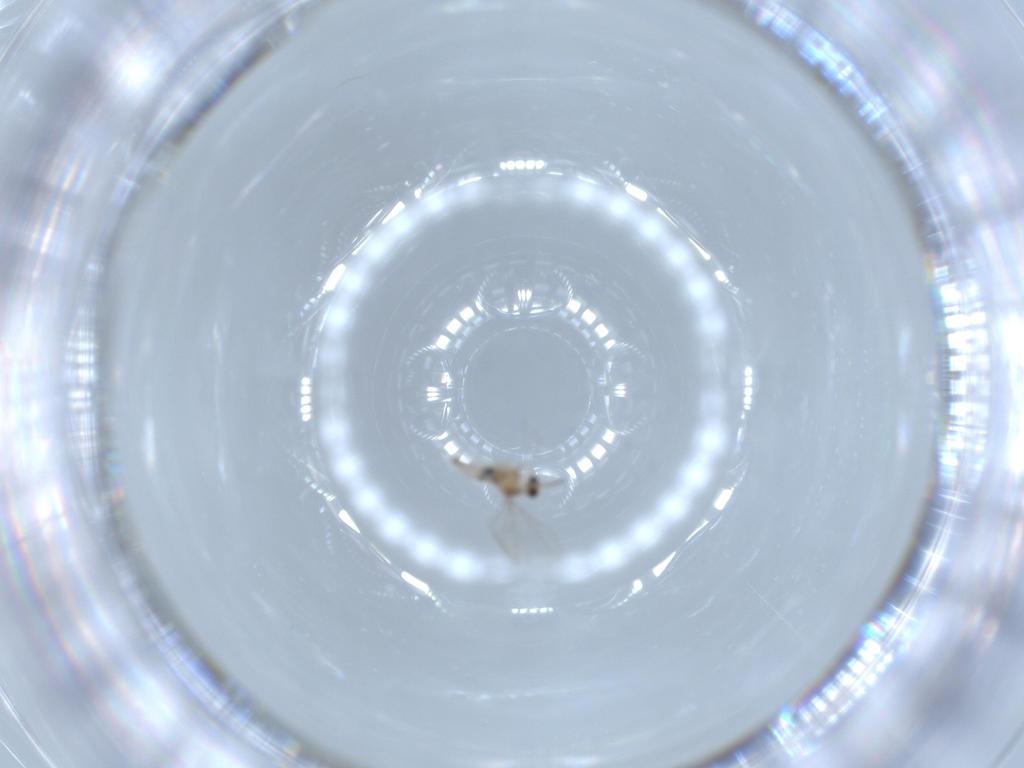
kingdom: Animalia
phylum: Arthropoda
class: Insecta
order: Diptera
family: Cecidomyiidae
